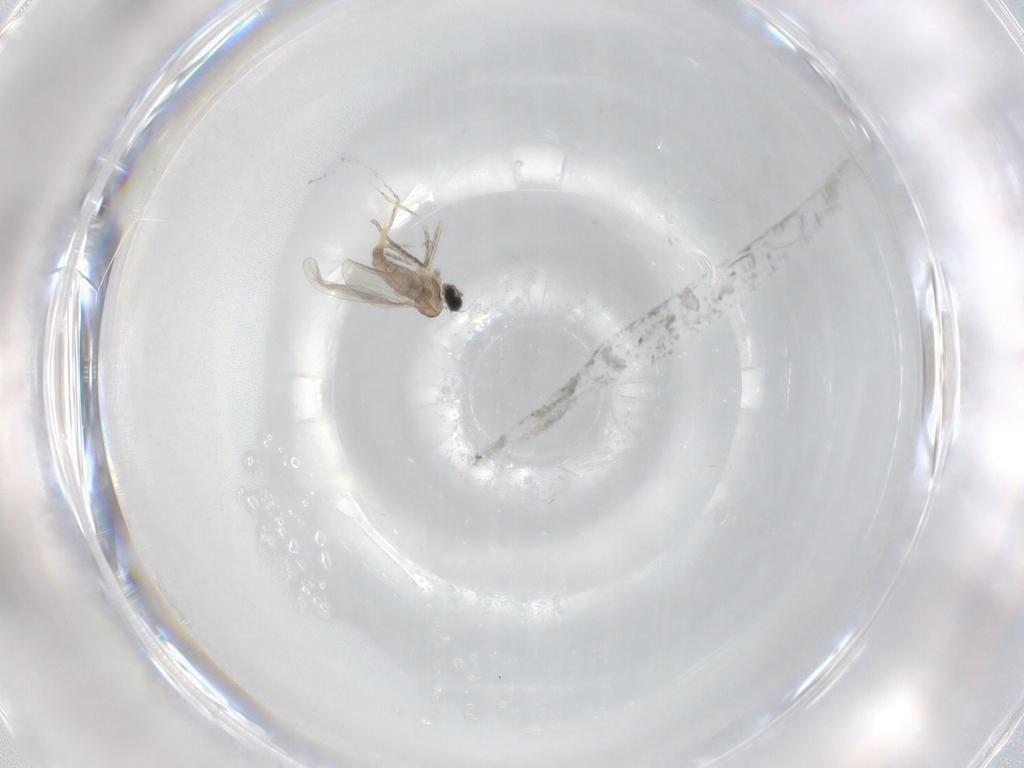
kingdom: Animalia
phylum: Arthropoda
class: Insecta
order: Diptera
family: Cecidomyiidae
